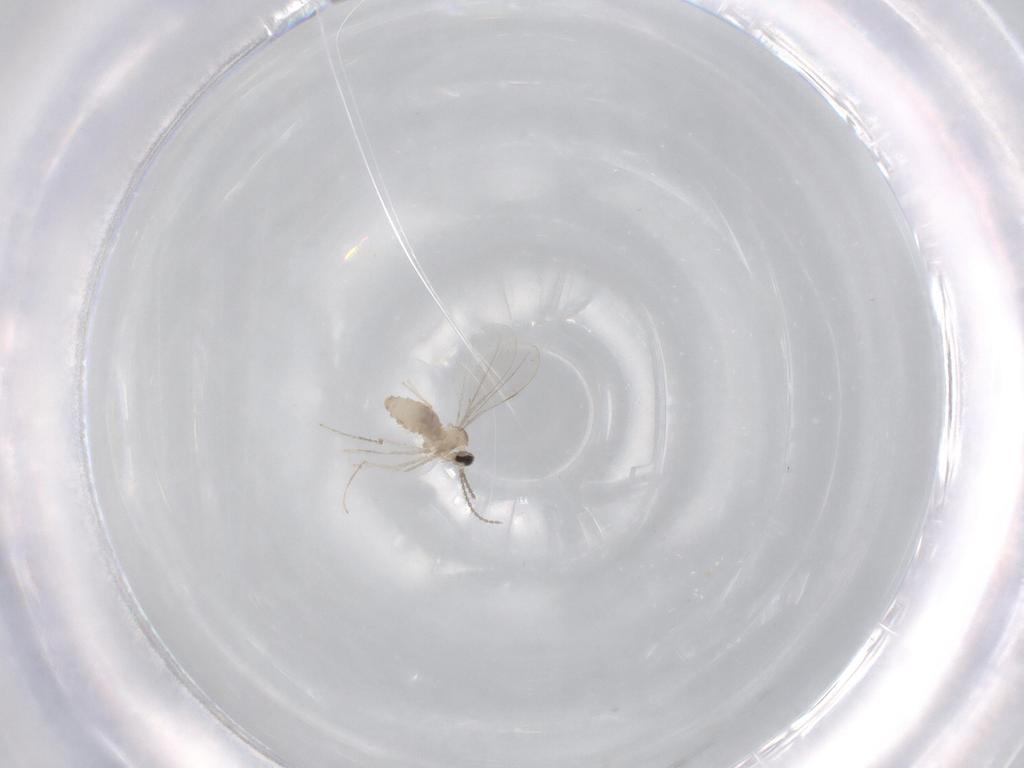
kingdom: Animalia
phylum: Arthropoda
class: Insecta
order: Diptera
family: Cecidomyiidae
